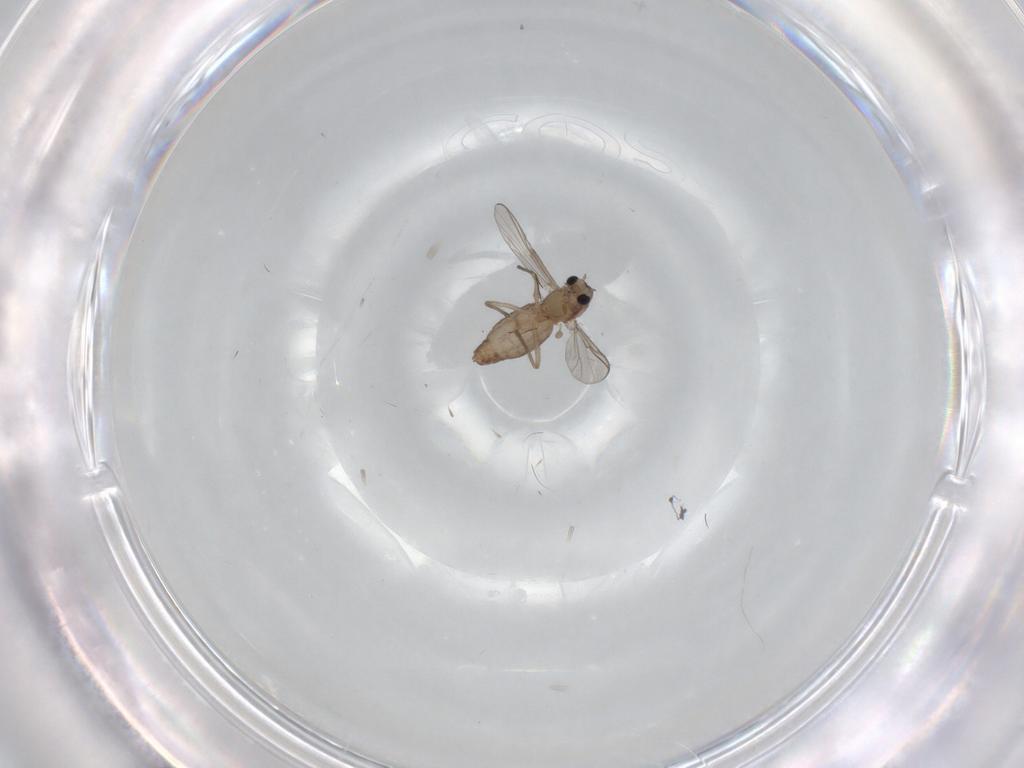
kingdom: Animalia
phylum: Arthropoda
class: Insecta
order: Diptera
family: Chironomidae
